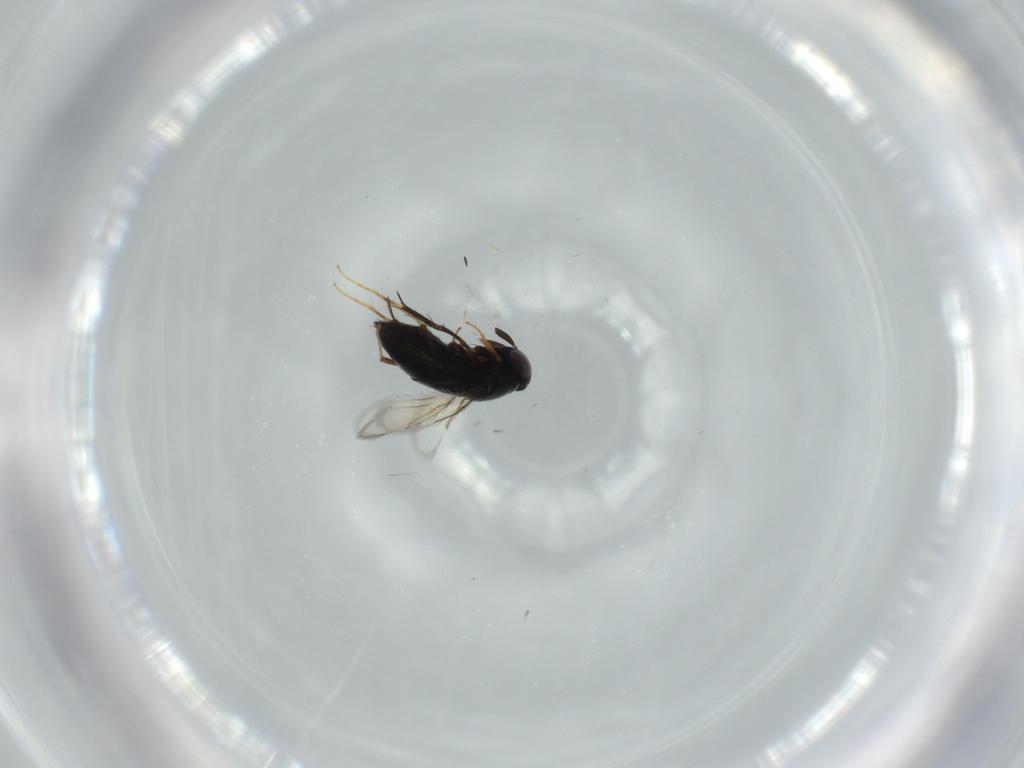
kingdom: Animalia
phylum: Arthropoda
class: Insecta
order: Hymenoptera
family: Signiphoridae
